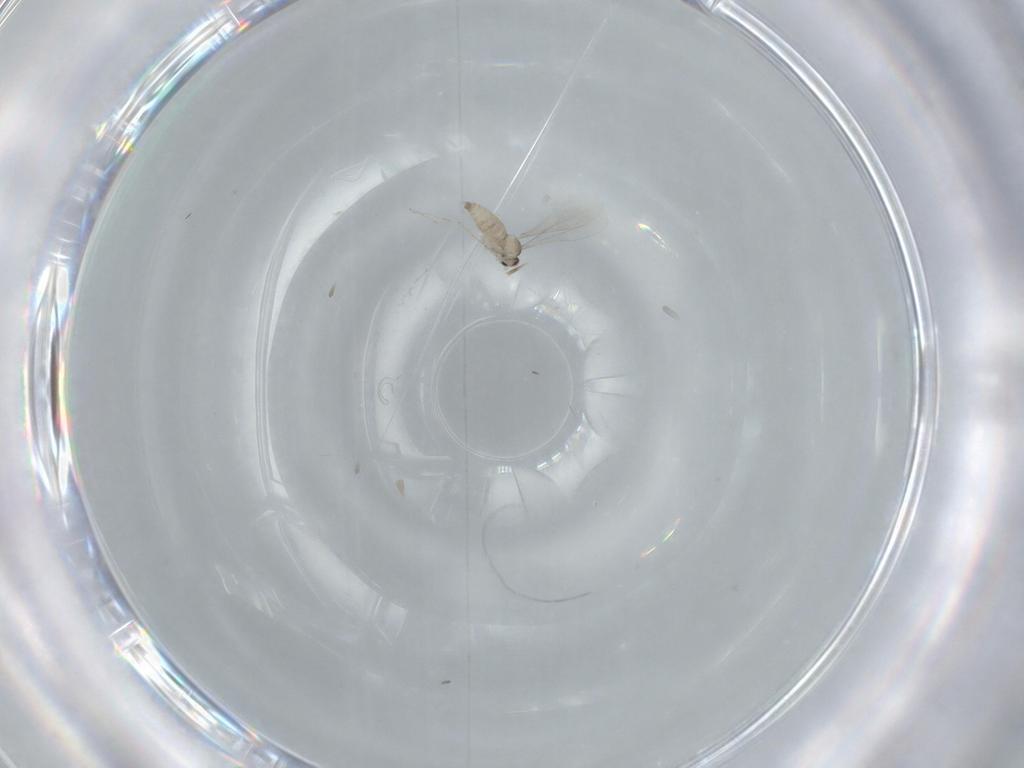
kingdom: Animalia
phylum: Arthropoda
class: Insecta
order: Diptera
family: Cecidomyiidae
